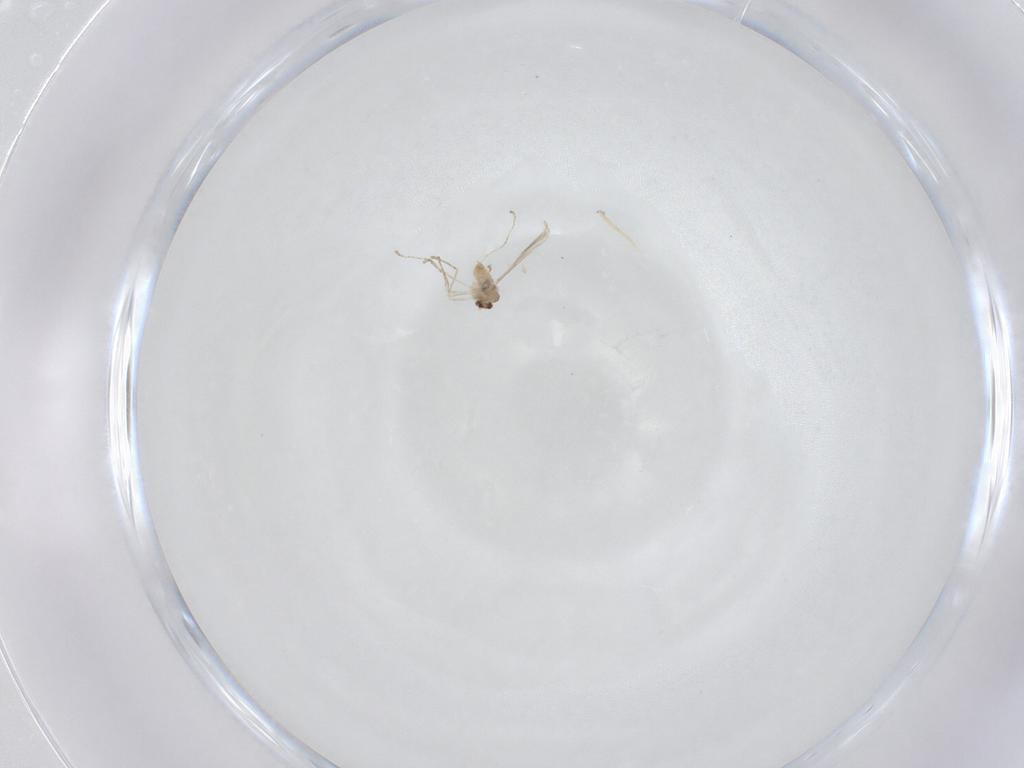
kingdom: Animalia
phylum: Arthropoda
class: Insecta
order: Diptera
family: Cecidomyiidae
